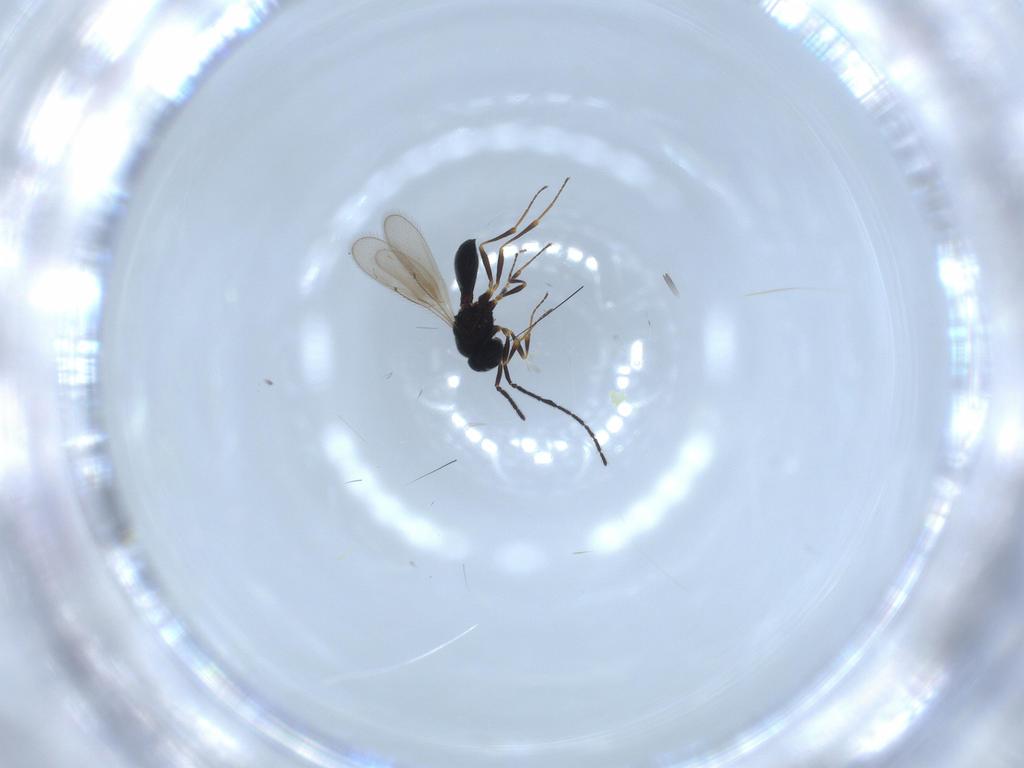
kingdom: Animalia
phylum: Arthropoda
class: Insecta
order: Hymenoptera
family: Scelionidae
